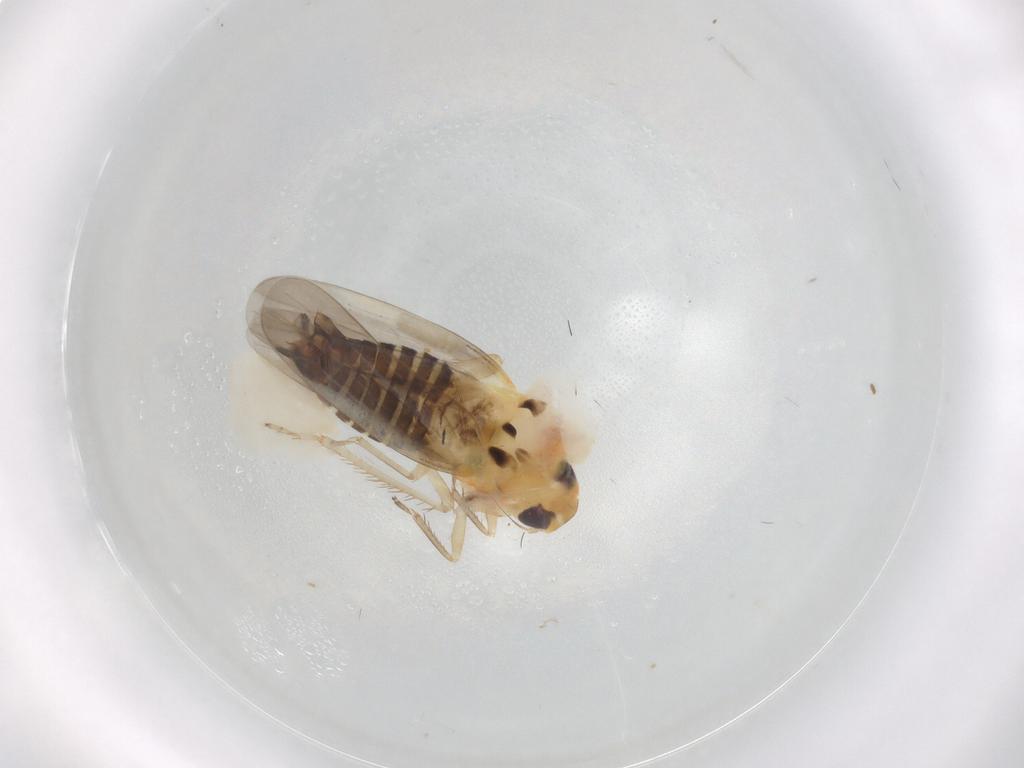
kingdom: Animalia
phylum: Arthropoda
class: Insecta
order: Hemiptera
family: Cicadellidae
